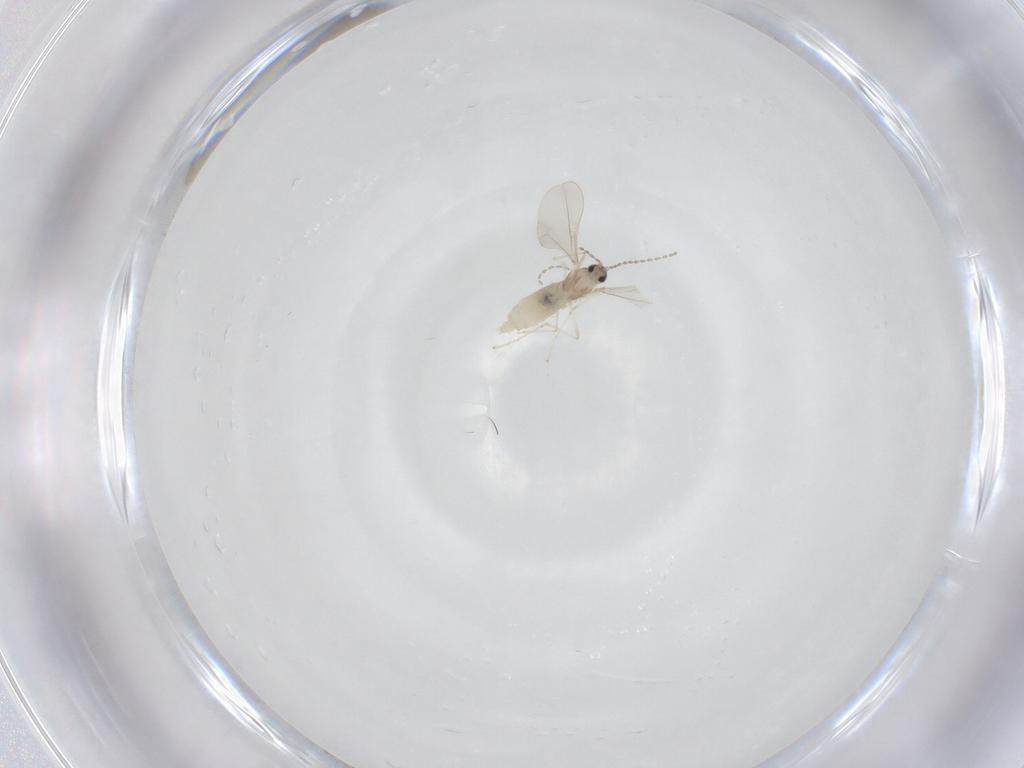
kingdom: Animalia
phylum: Arthropoda
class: Insecta
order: Diptera
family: Cecidomyiidae
